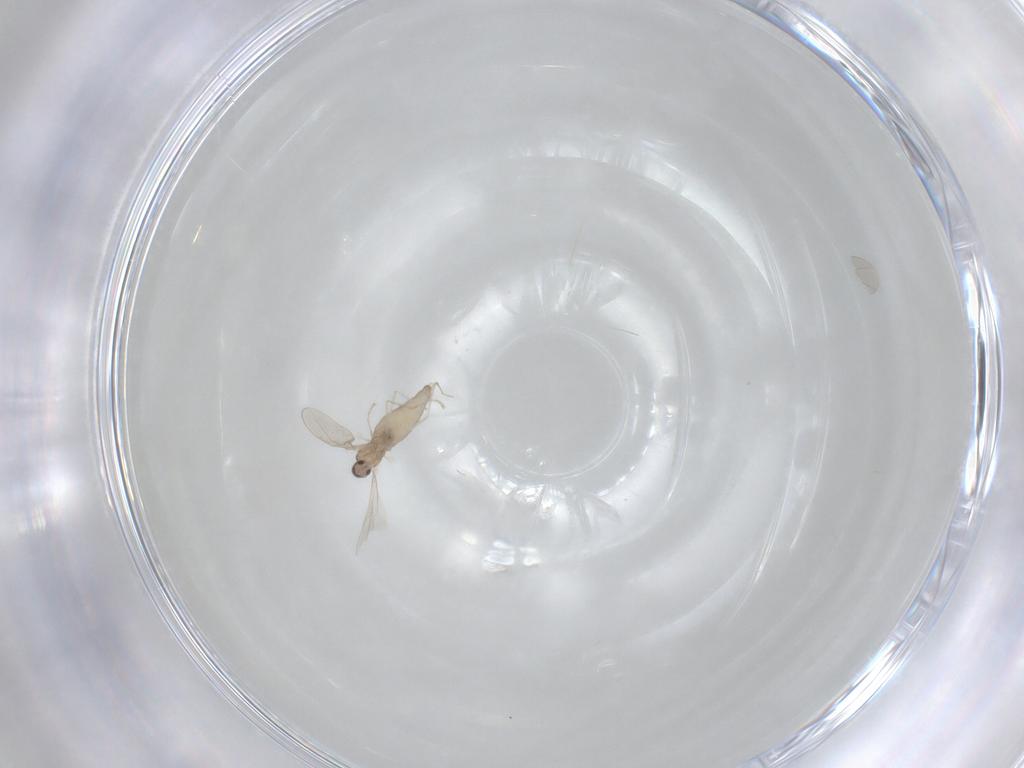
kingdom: Animalia
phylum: Arthropoda
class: Insecta
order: Diptera
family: Cecidomyiidae
